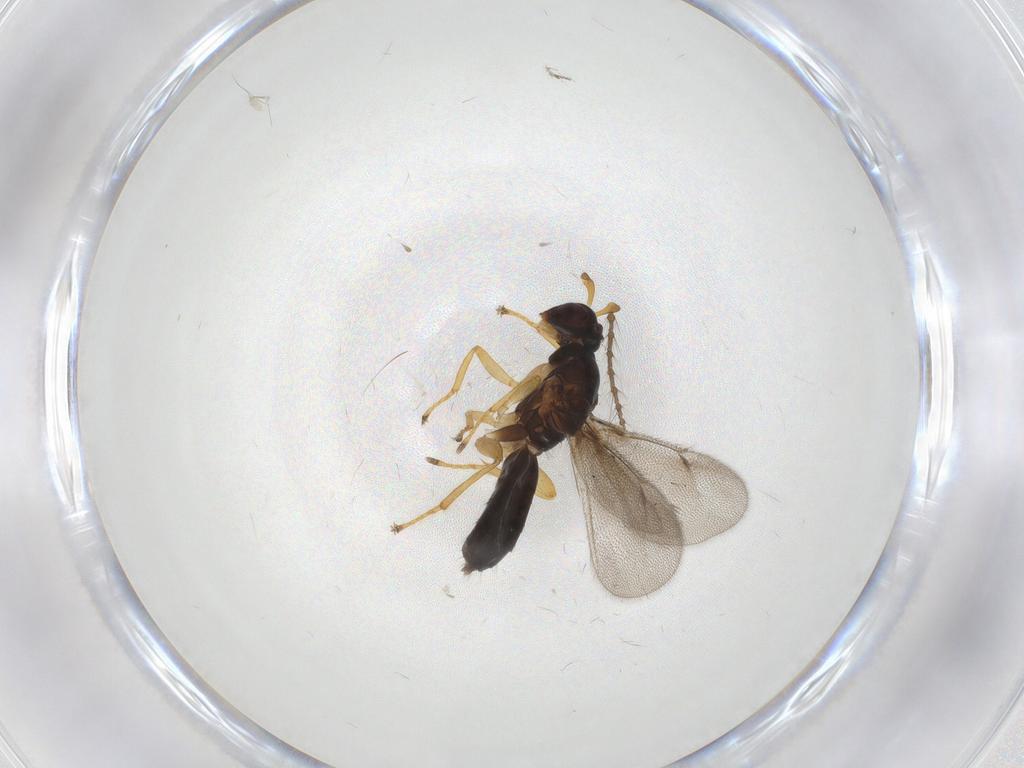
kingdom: Animalia
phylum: Arthropoda
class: Insecta
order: Hymenoptera
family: Eulophidae
